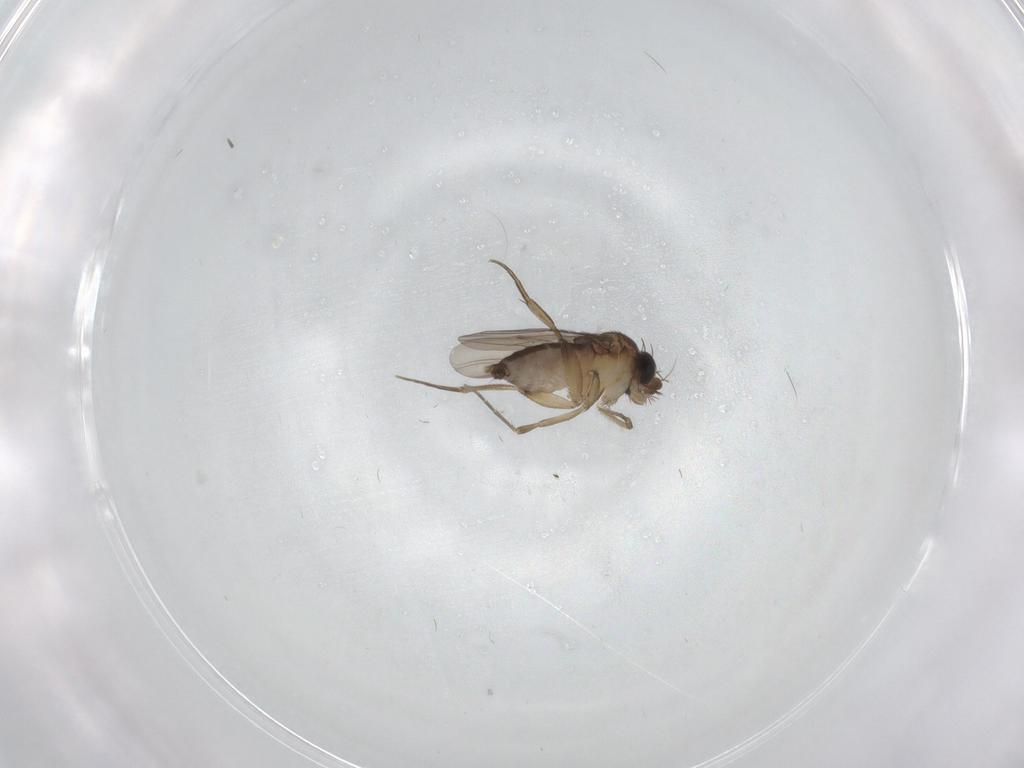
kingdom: Animalia
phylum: Arthropoda
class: Insecta
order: Diptera
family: Phoridae
